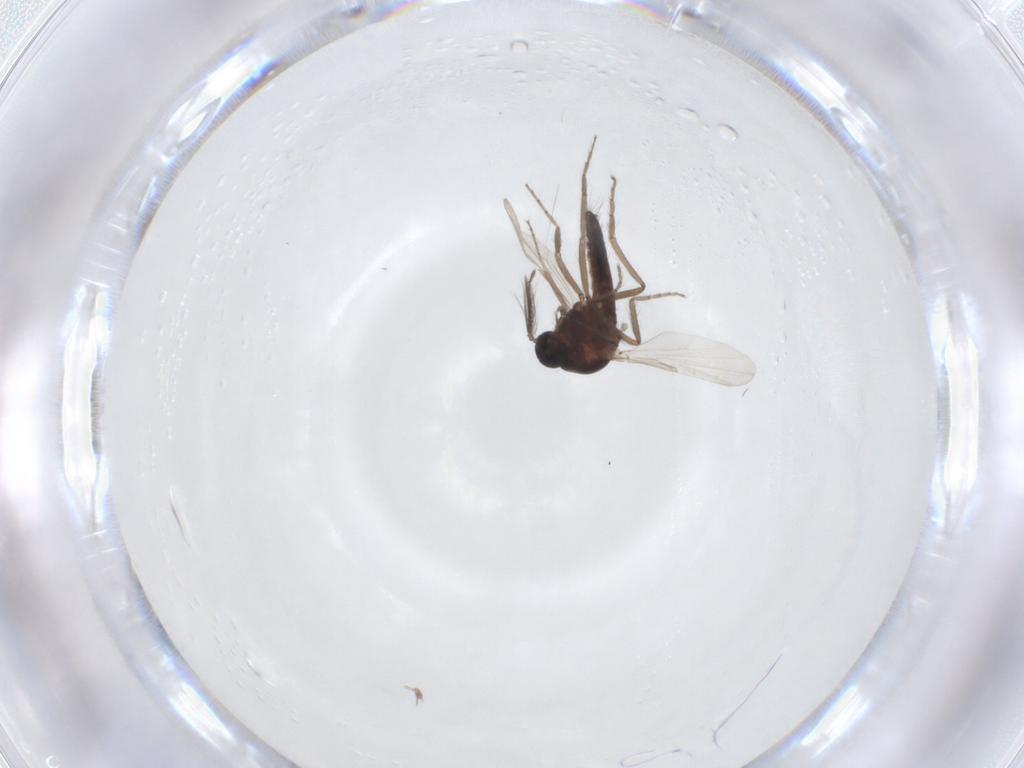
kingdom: Animalia
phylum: Arthropoda
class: Insecta
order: Diptera
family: Ceratopogonidae
